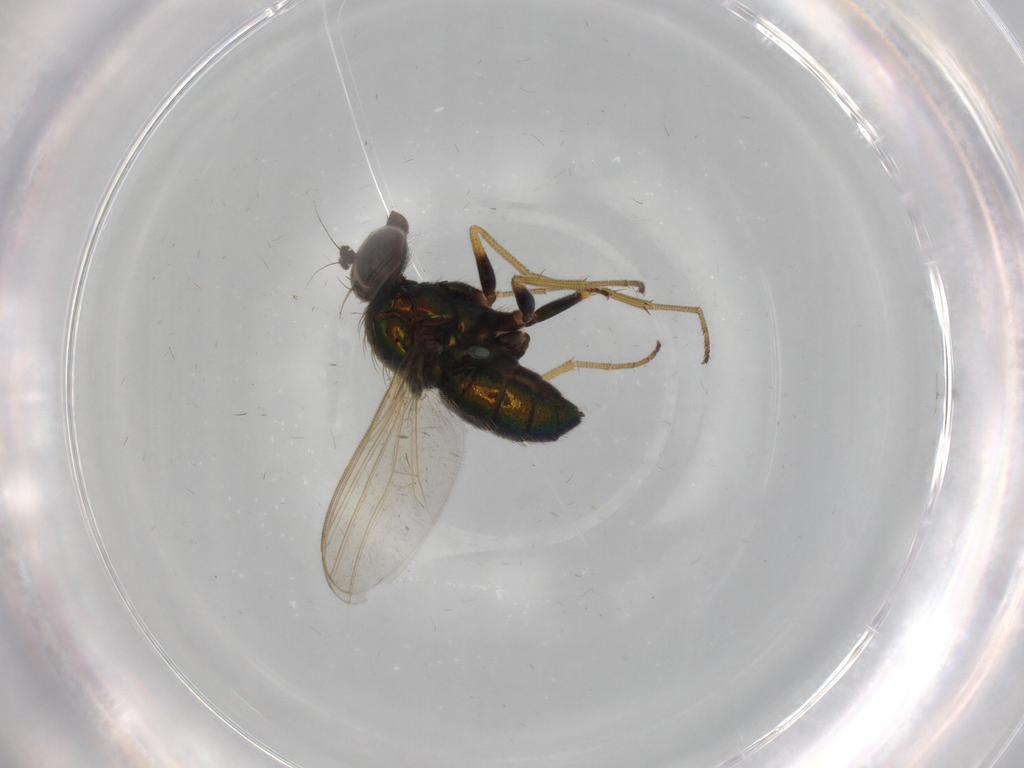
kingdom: Animalia
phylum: Arthropoda
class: Insecta
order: Diptera
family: Dolichopodidae
